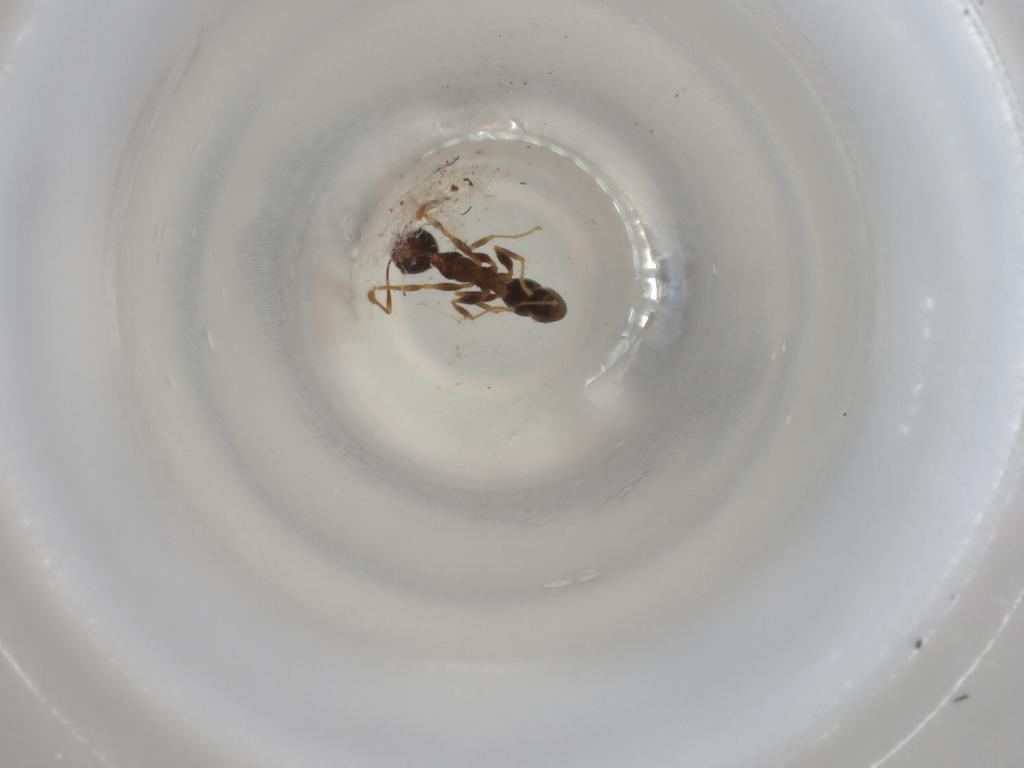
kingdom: Animalia
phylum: Arthropoda
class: Insecta
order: Hymenoptera
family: Formicidae
